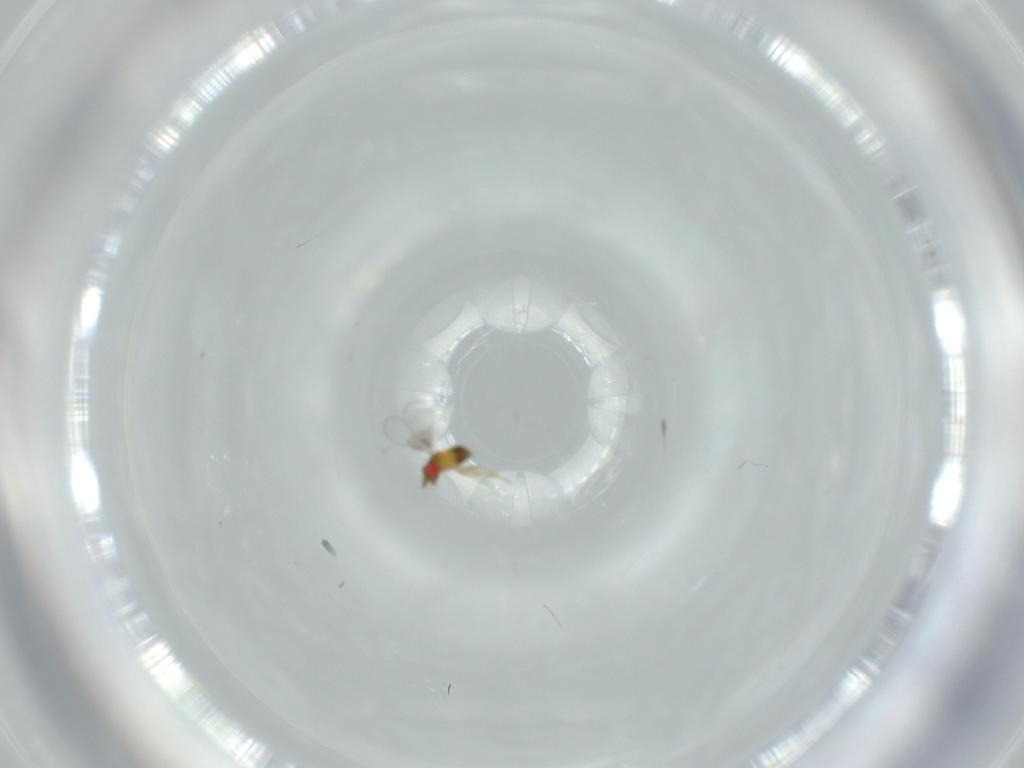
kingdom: Animalia
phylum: Arthropoda
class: Insecta
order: Hymenoptera
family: Trichogrammatidae
